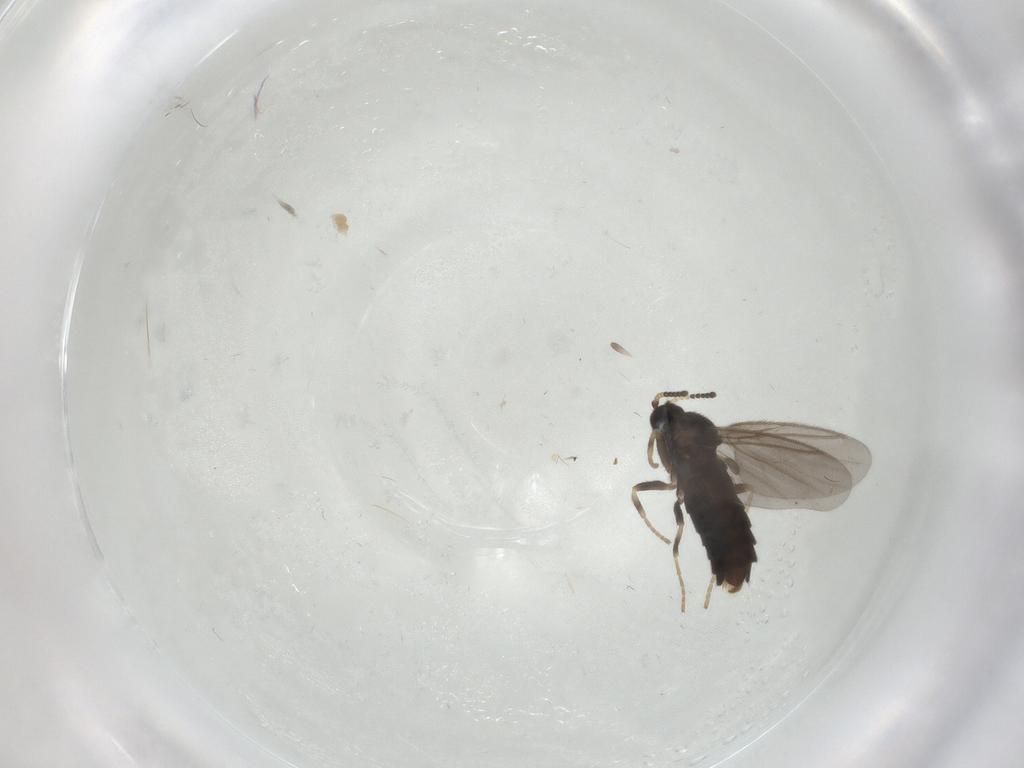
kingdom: Animalia
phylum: Arthropoda
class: Insecta
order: Diptera
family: Scatopsidae
